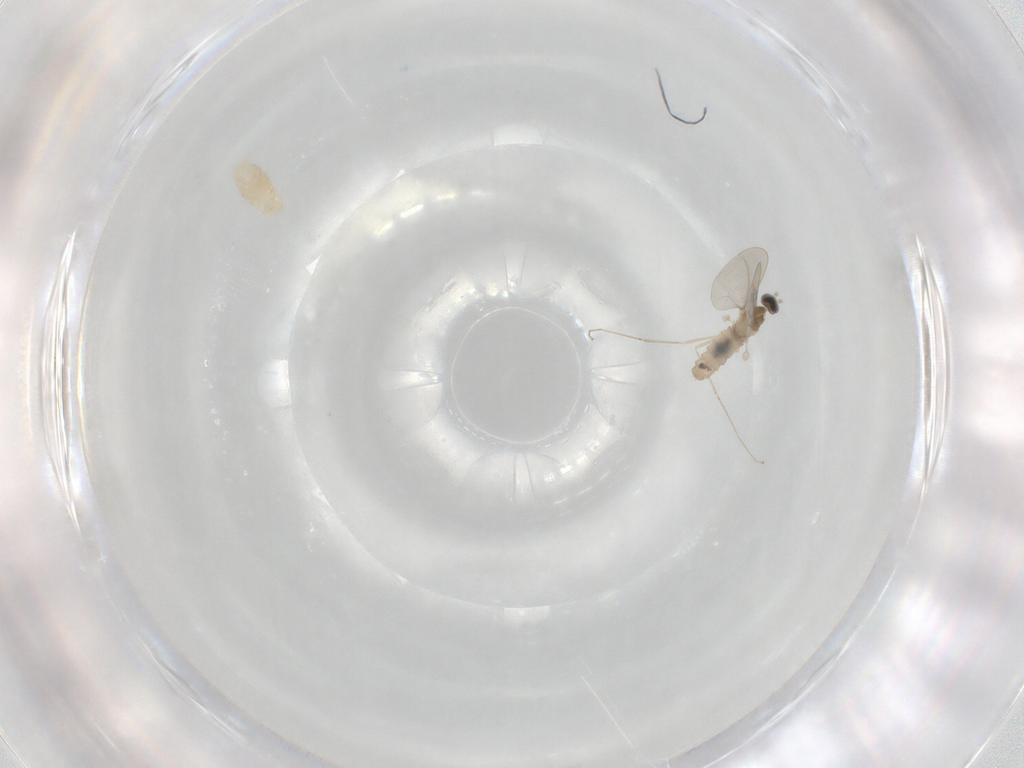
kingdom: Animalia
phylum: Arthropoda
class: Insecta
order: Diptera
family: Cecidomyiidae
